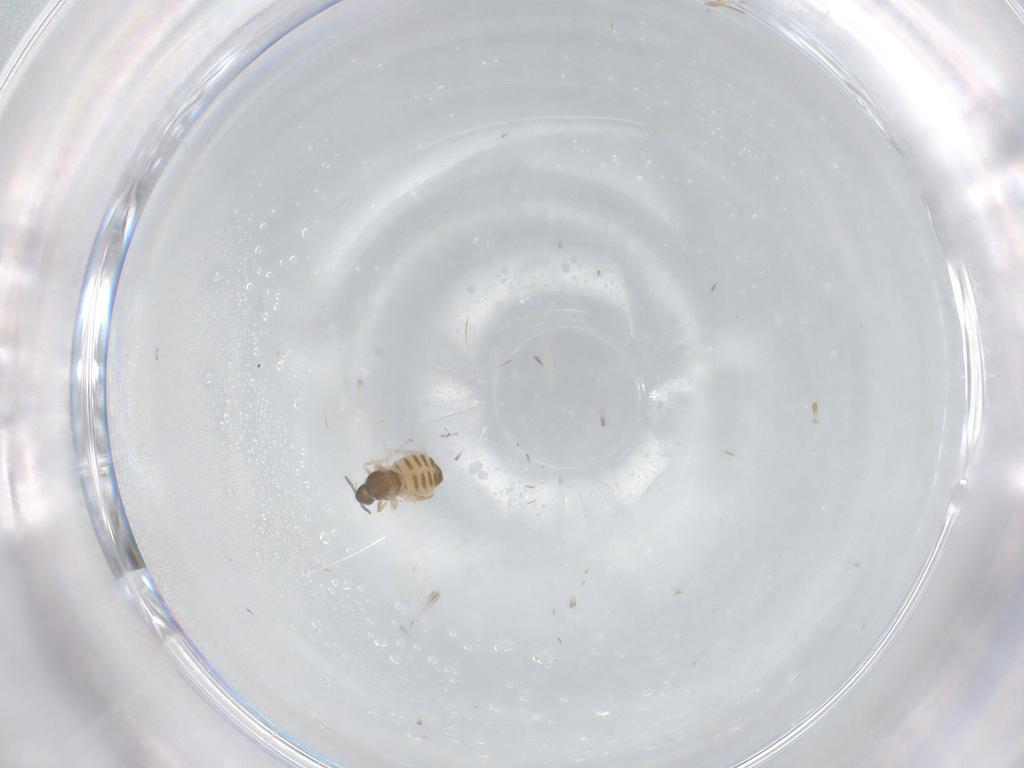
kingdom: Animalia
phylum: Arthropoda
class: Insecta
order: Diptera
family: Cecidomyiidae
